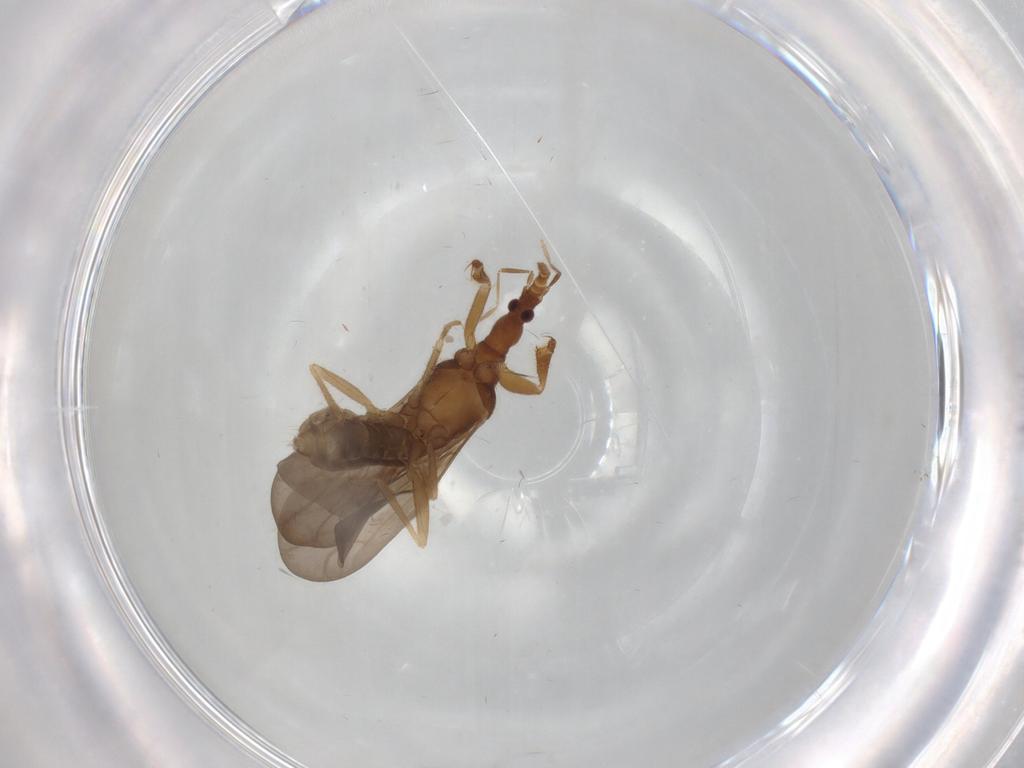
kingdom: Animalia
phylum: Arthropoda
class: Insecta
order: Hemiptera
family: Enicocephalidae
